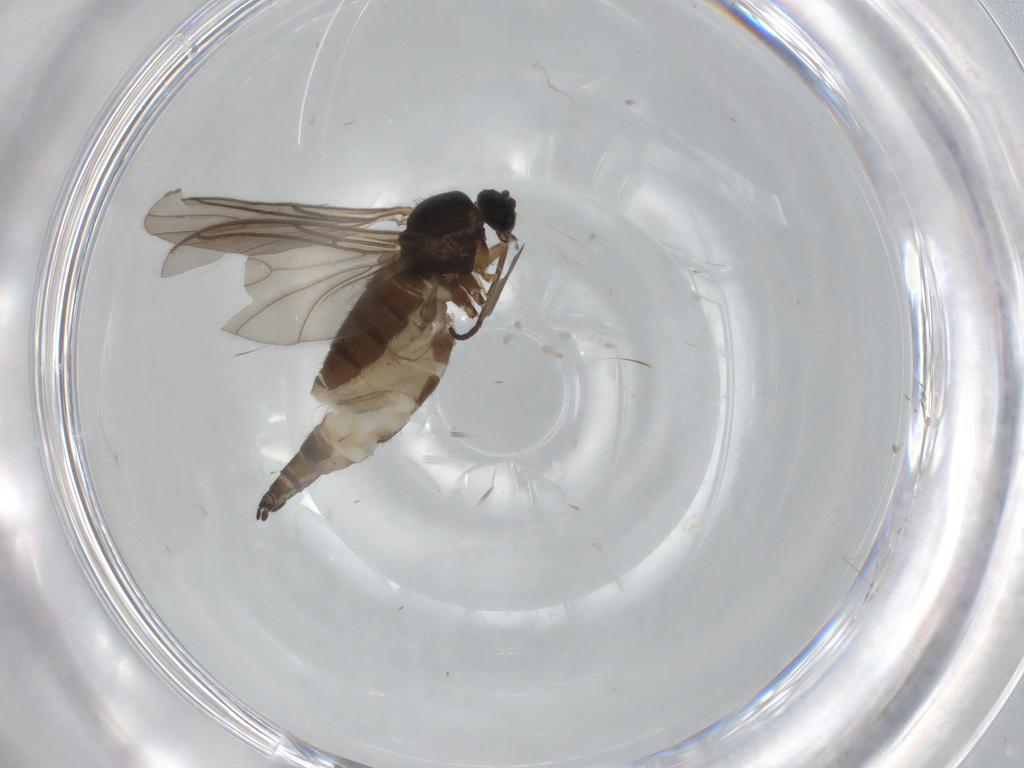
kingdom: Animalia
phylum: Arthropoda
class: Insecta
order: Diptera
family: Sciaridae
